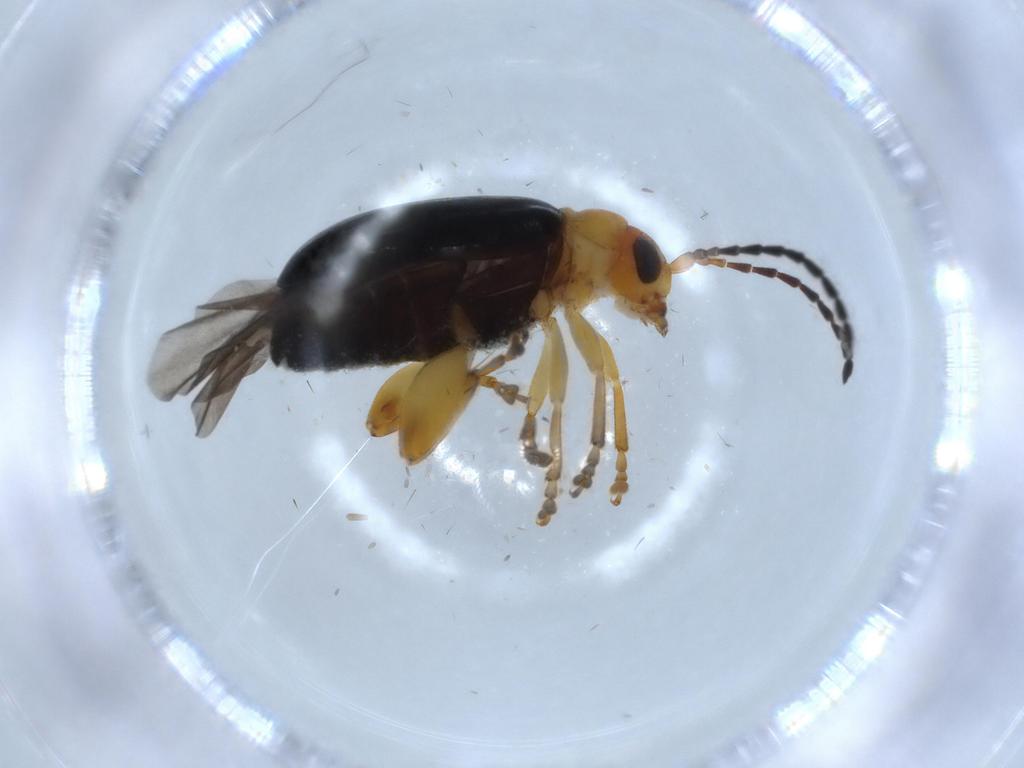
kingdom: Animalia
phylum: Arthropoda
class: Insecta
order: Coleoptera
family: Chrysomelidae
